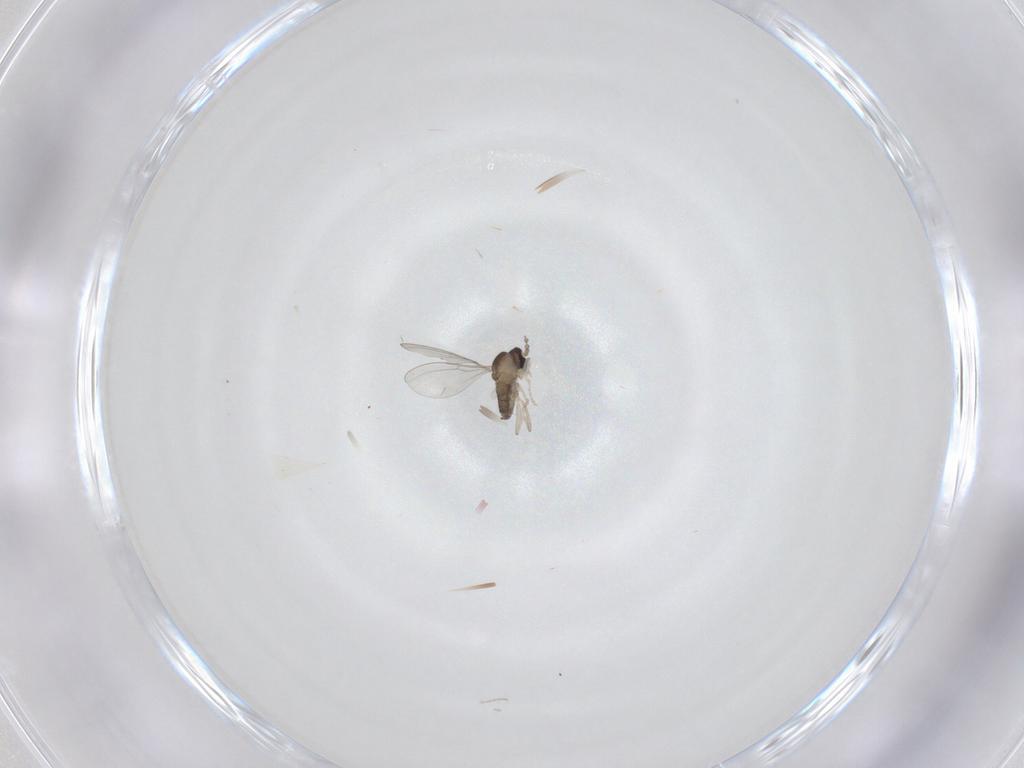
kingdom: Animalia
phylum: Arthropoda
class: Insecta
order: Diptera
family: Cecidomyiidae
